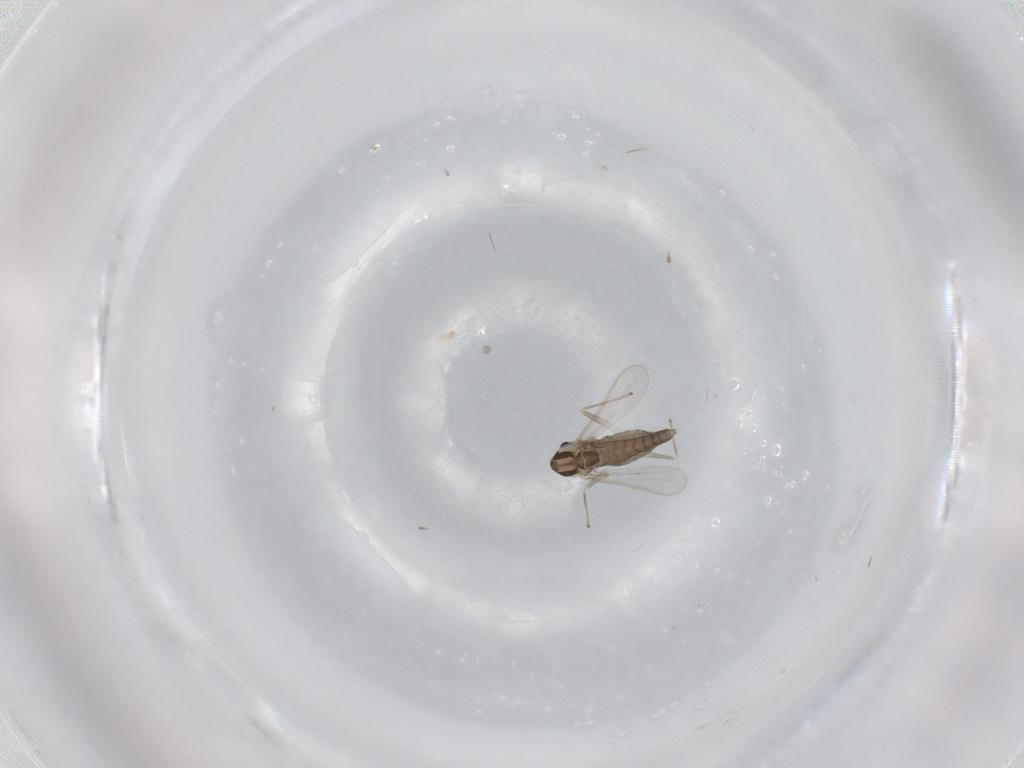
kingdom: Animalia
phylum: Arthropoda
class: Insecta
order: Diptera
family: Chironomidae
